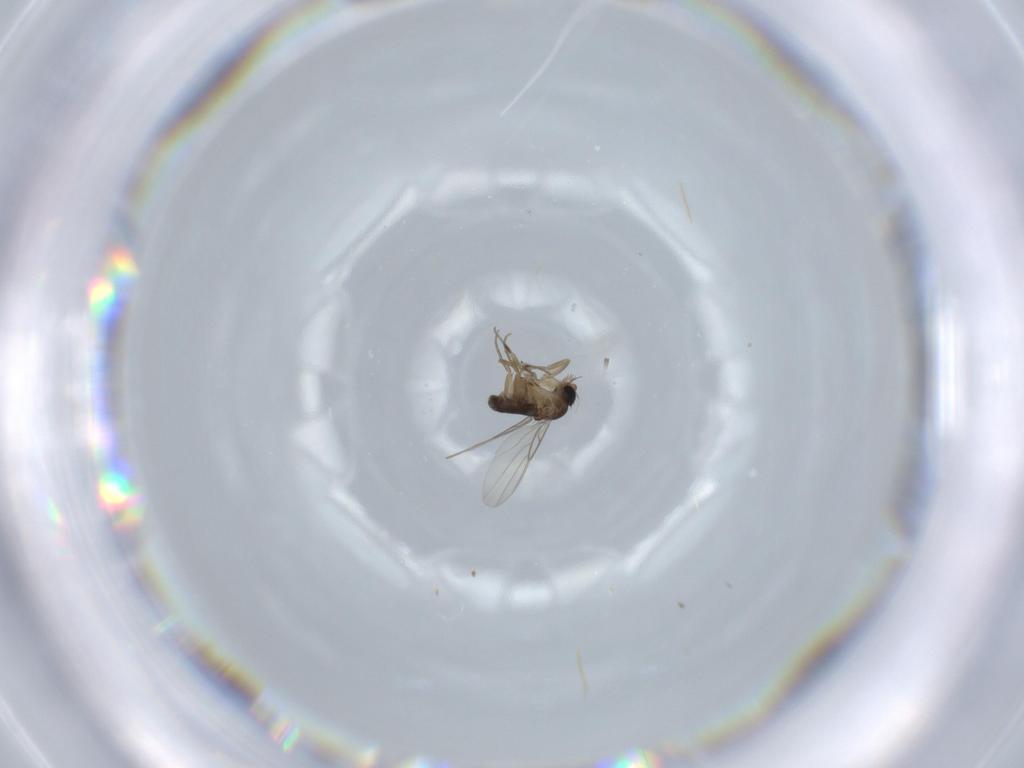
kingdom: Animalia
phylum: Arthropoda
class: Insecta
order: Diptera
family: Phoridae
